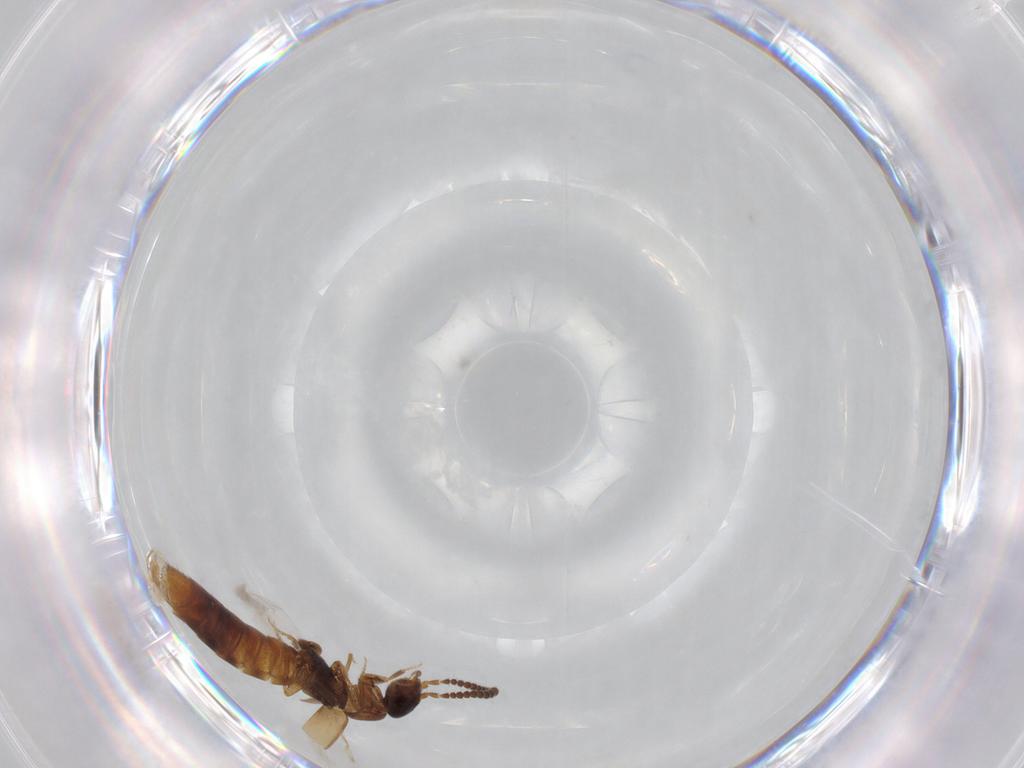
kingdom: Animalia
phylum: Arthropoda
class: Insecta
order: Coleoptera
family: Staphylinidae
